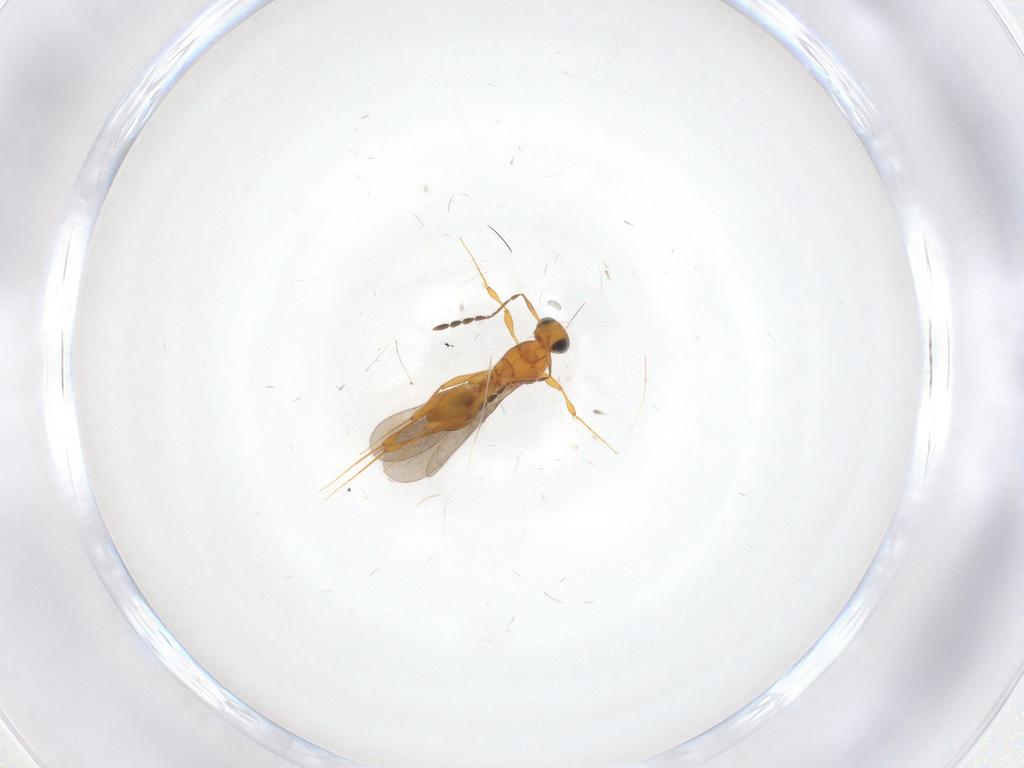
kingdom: Animalia
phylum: Arthropoda
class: Insecta
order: Hymenoptera
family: Platygastridae
